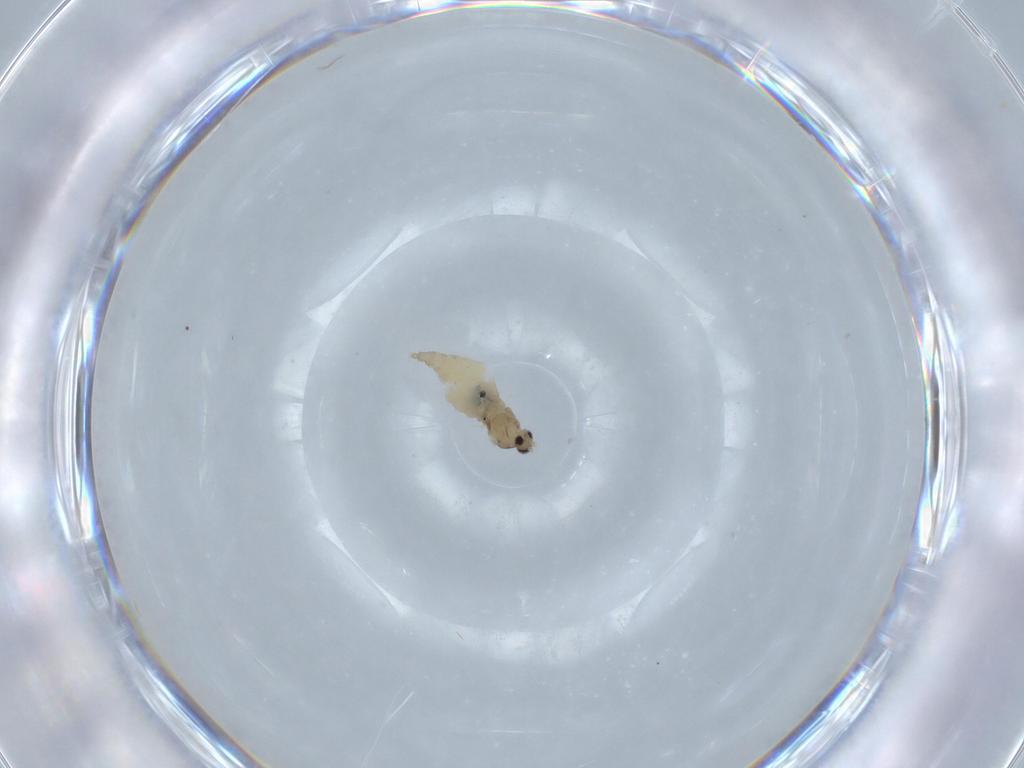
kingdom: Animalia
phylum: Arthropoda
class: Insecta
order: Diptera
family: Cecidomyiidae
